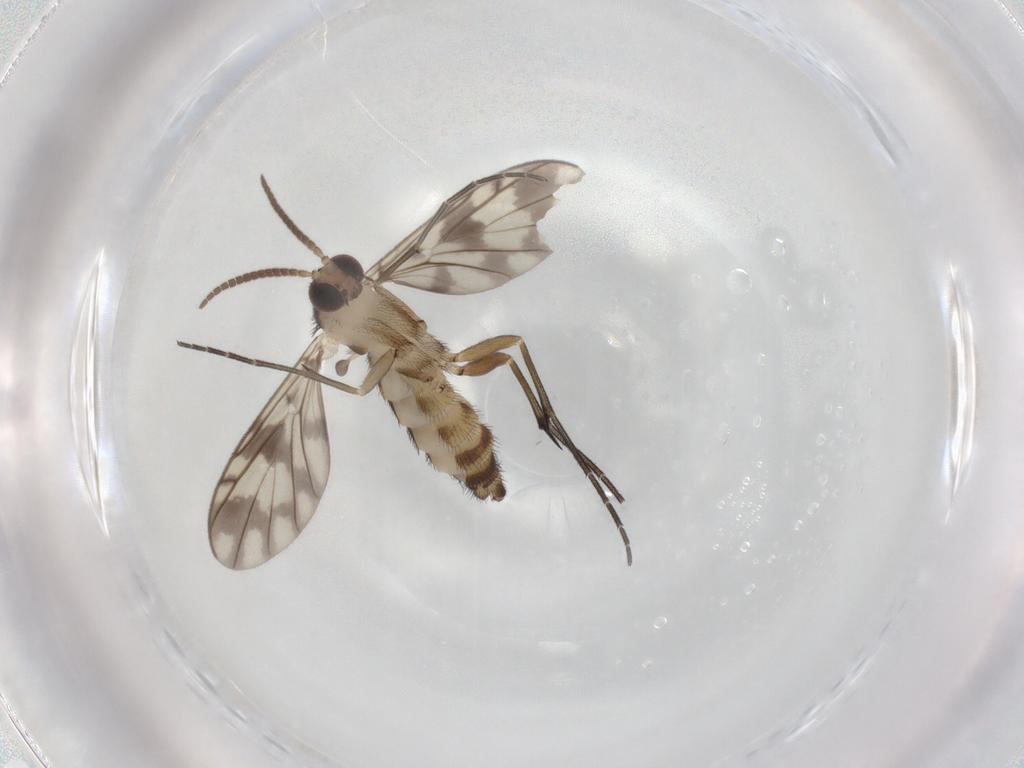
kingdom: Animalia
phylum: Arthropoda
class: Insecta
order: Diptera
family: Keroplatidae
